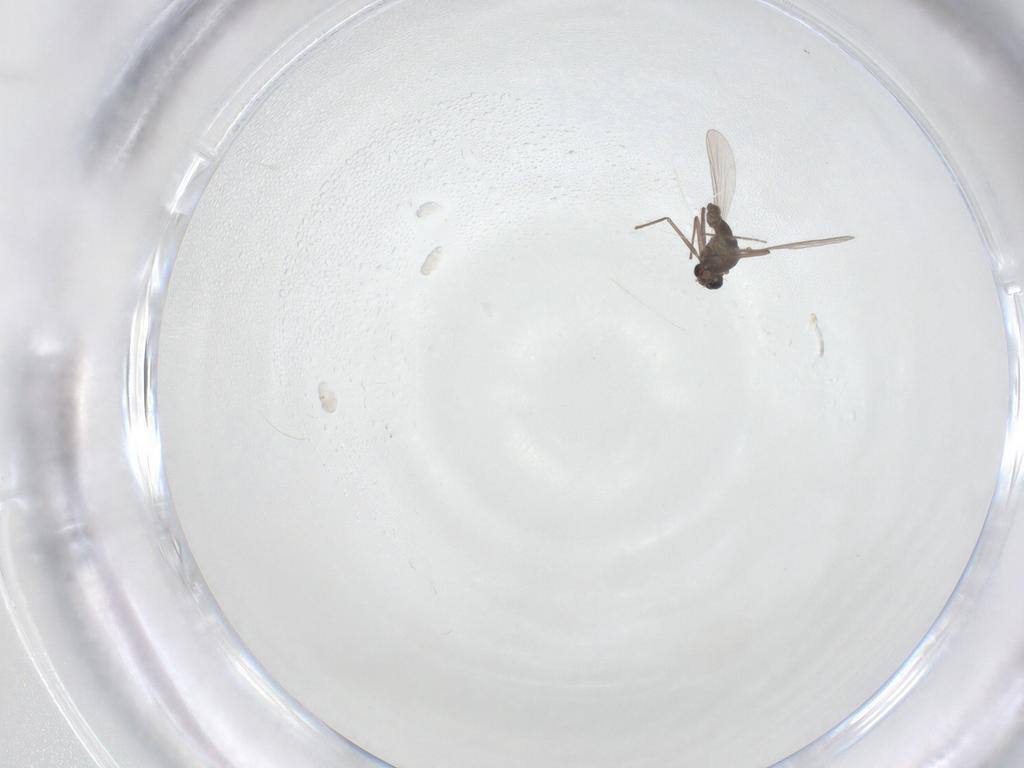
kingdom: Animalia
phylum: Arthropoda
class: Insecta
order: Diptera
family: Chironomidae
